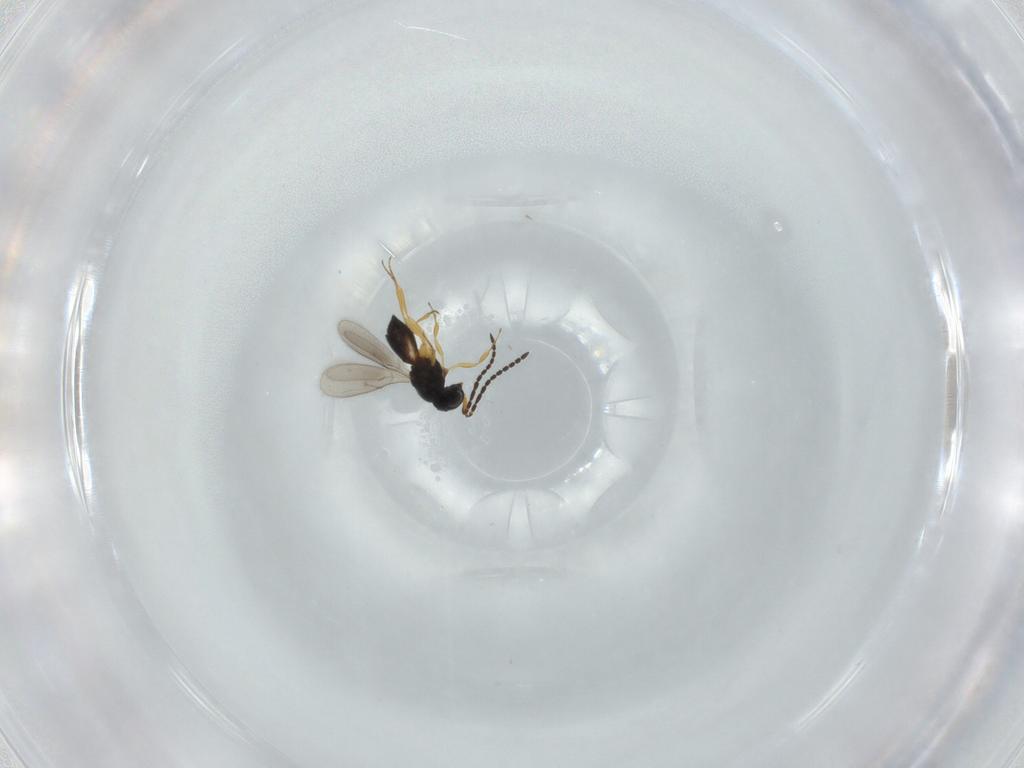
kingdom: Animalia
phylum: Arthropoda
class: Insecta
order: Hymenoptera
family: Scelionidae
